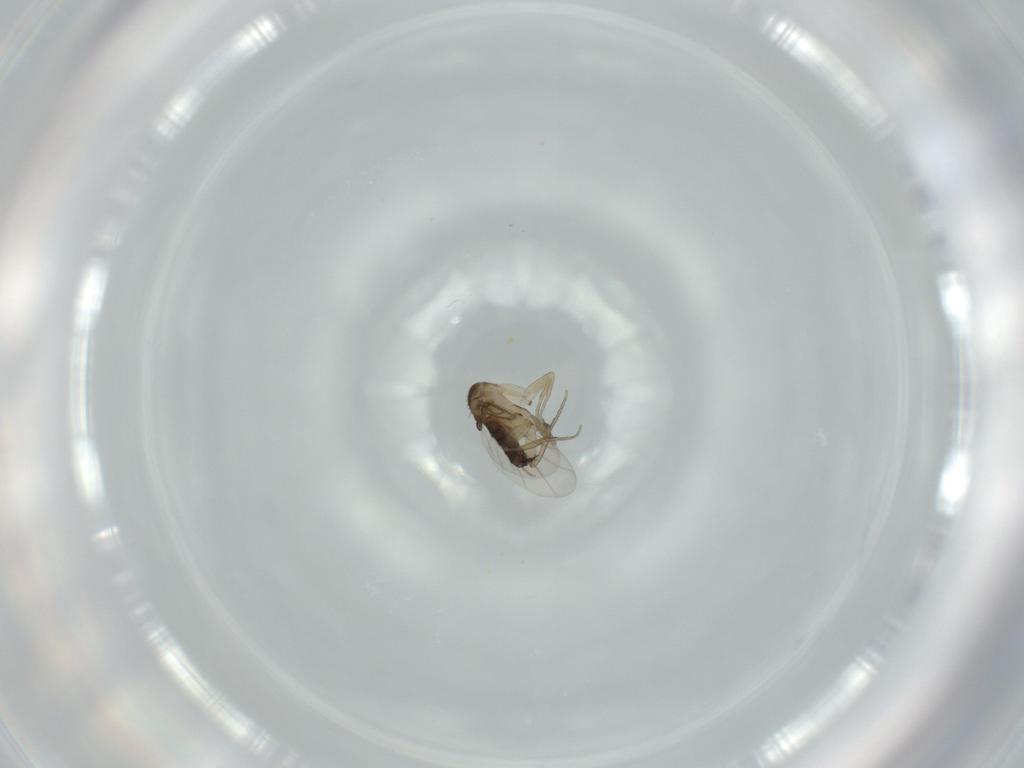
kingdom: Animalia
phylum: Arthropoda
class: Insecta
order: Diptera
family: Phoridae
